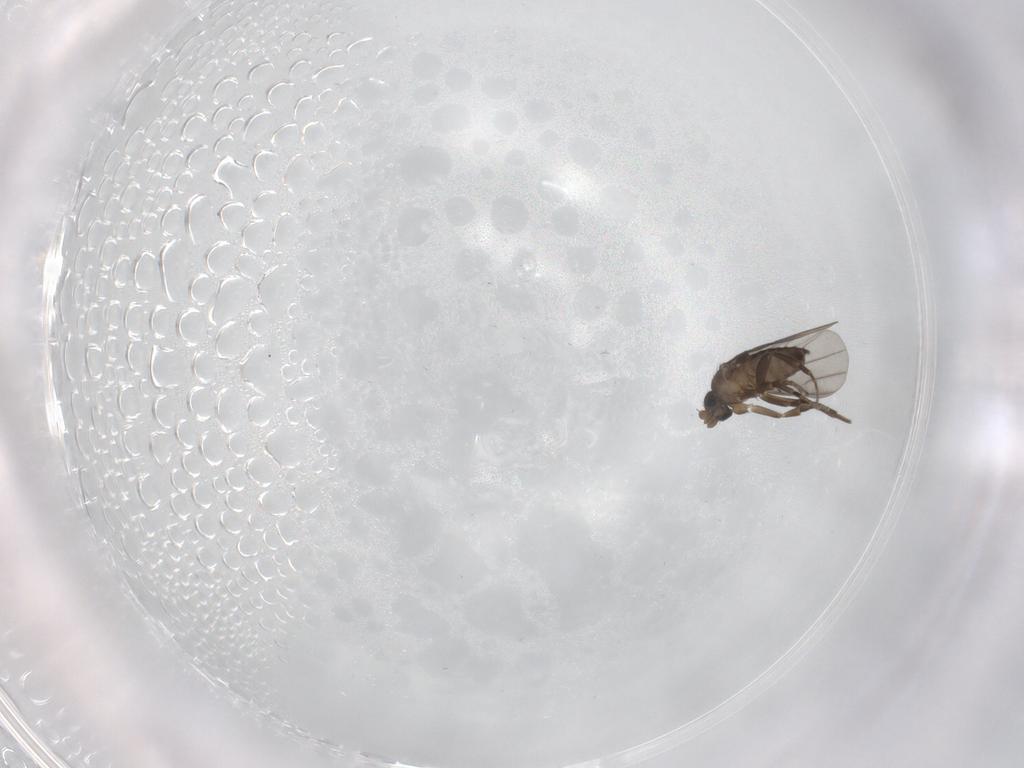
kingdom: Animalia
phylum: Arthropoda
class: Insecta
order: Diptera
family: Phoridae
